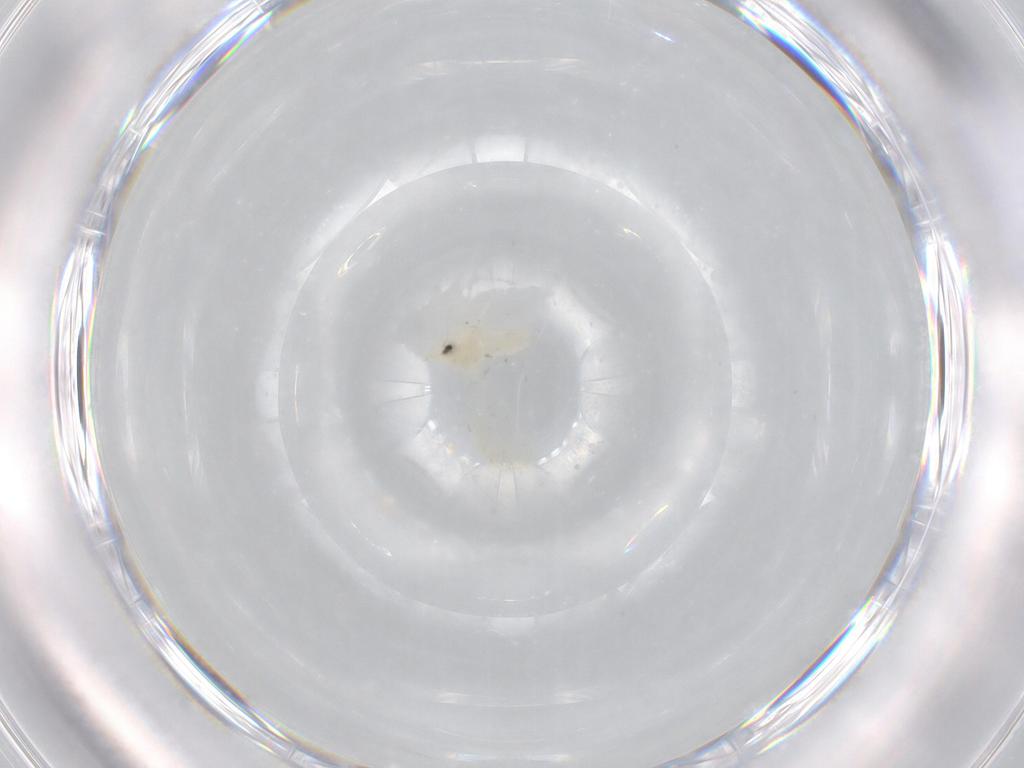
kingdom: Animalia
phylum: Arthropoda
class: Insecta
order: Hemiptera
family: Aleyrodidae
